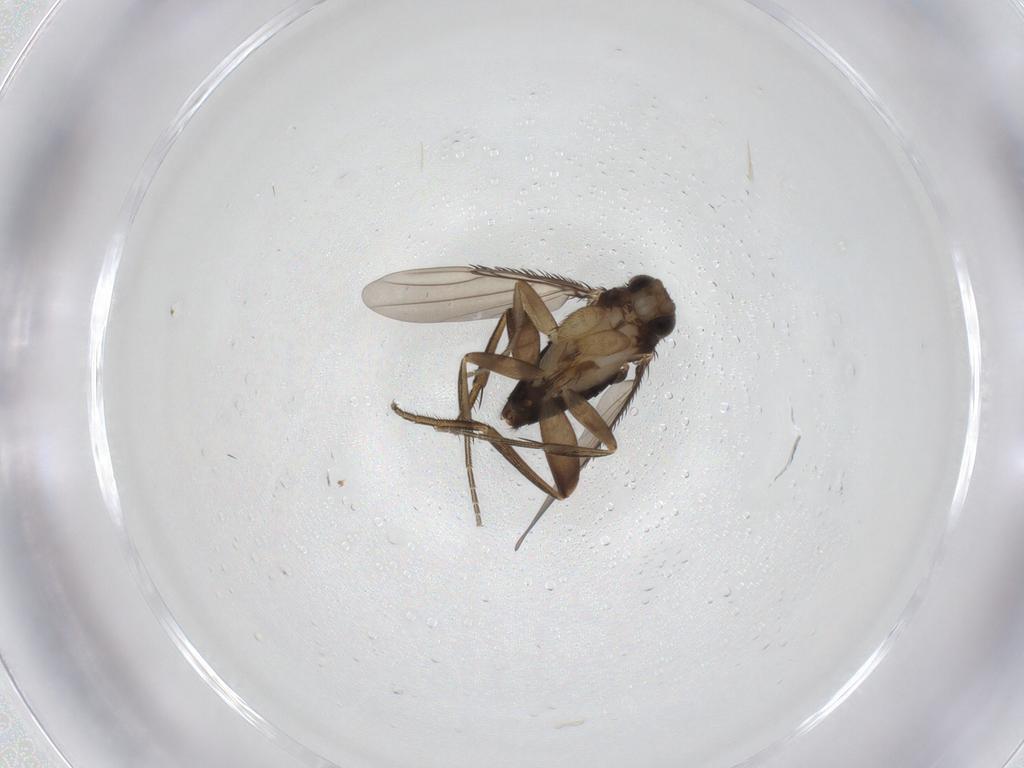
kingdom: Animalia
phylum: Arthropoda
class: Insecta
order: Diptera
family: Phoridae
